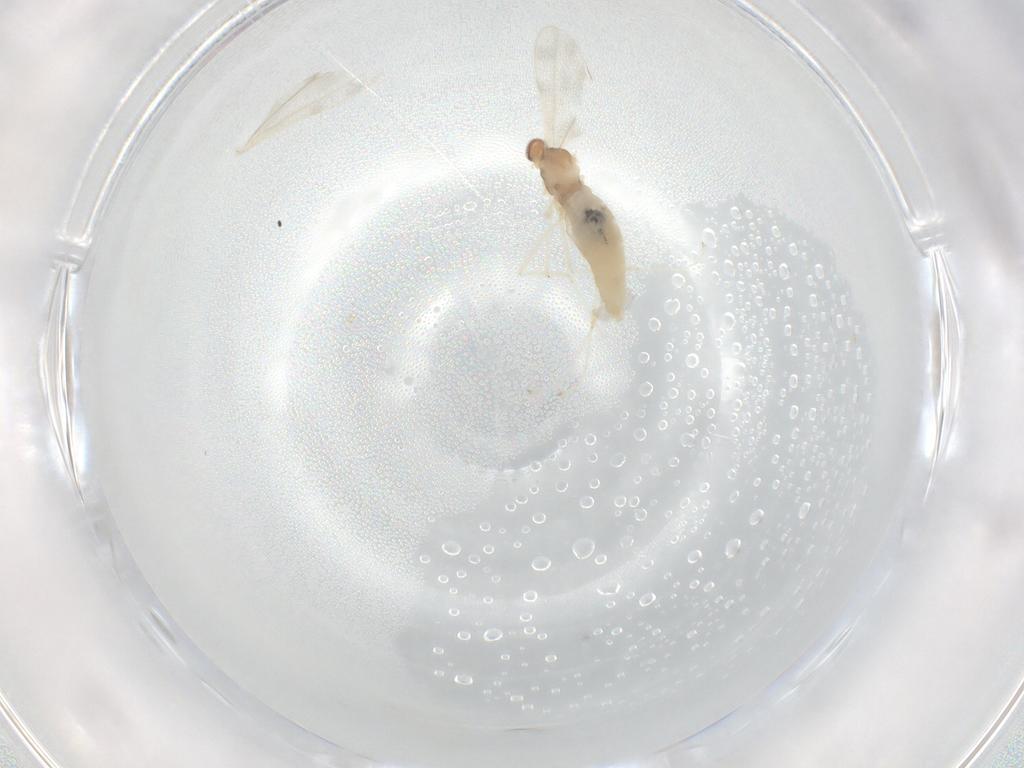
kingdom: Animalia
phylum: Arthropoda
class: Insecta
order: Diptera
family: Cecidomyiidae
